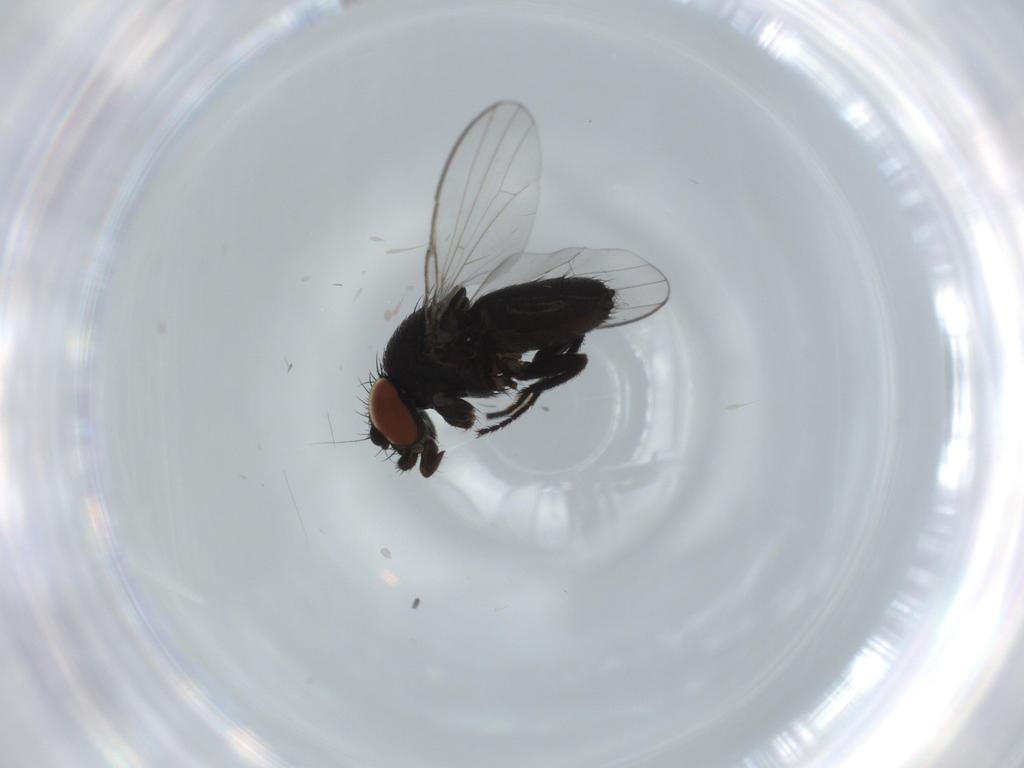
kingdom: Animalia
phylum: Arthropoda
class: Insecta
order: Diptera
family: Milichiidae
